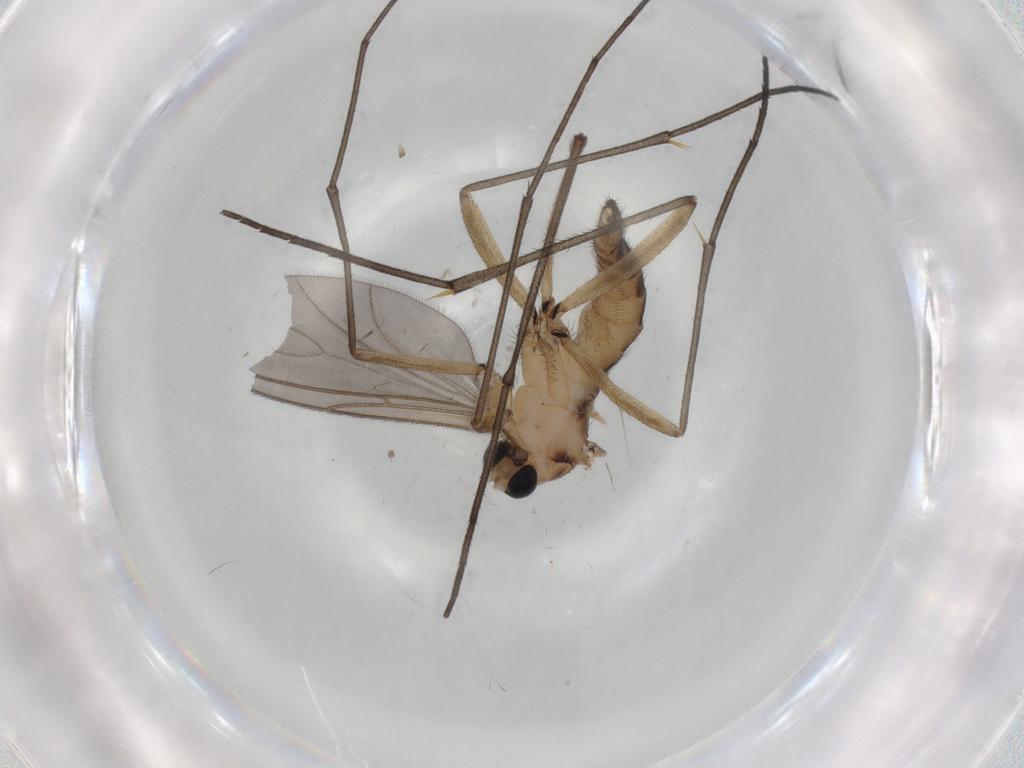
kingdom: Animalia
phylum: Arthropoda
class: Insecta
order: Diptera
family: Sciaridae
